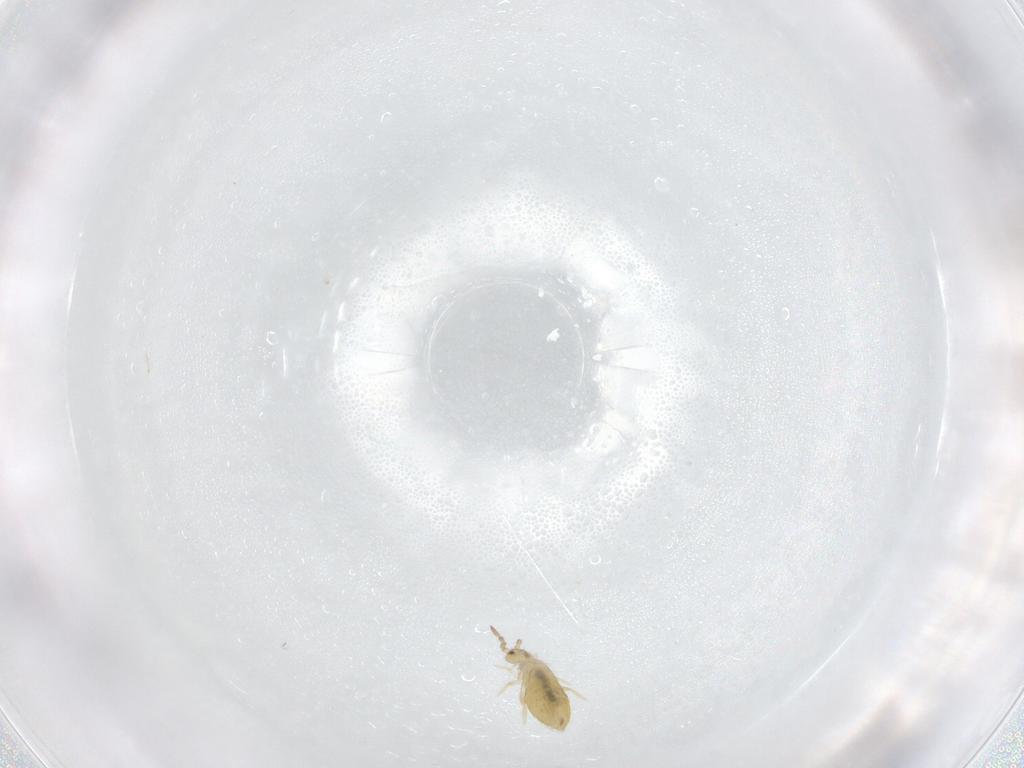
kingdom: Animalia
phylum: Arthropoda
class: Collembola
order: Entomobryomorpha
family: Entomobryidae
